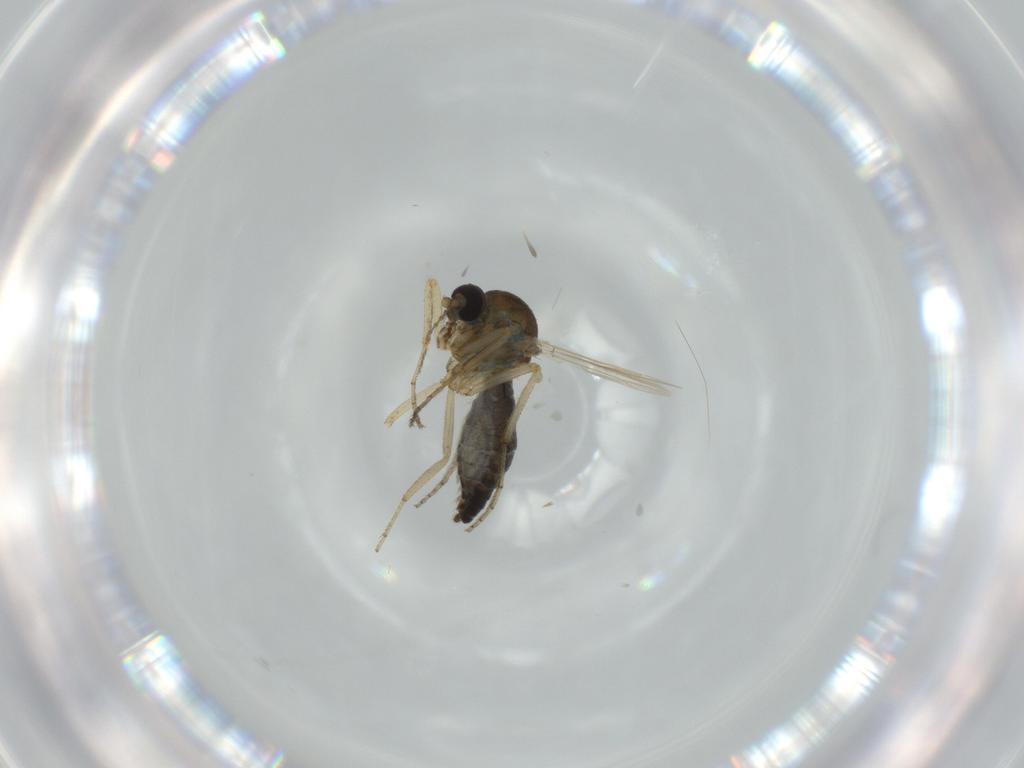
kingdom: Animalia
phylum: Arthropoda
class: Insecta
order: Diptera
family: Ceratopogonidae
